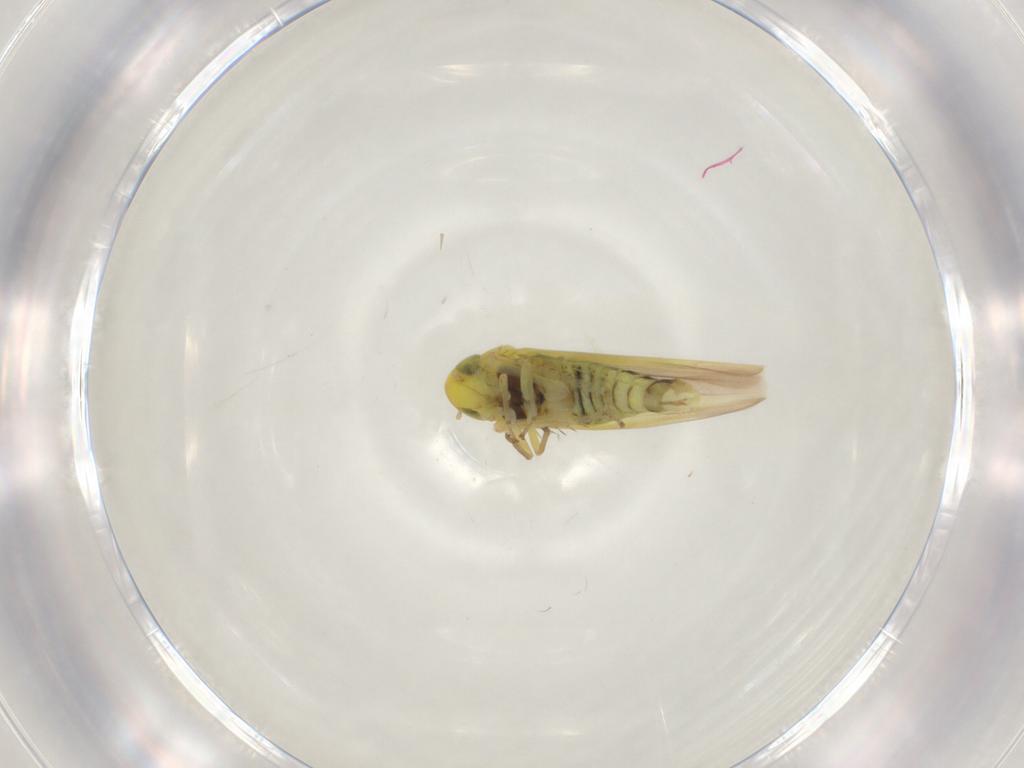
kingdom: Animalia
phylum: Arthropoda
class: Insecta
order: Hemiptera
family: Cicadellidae
